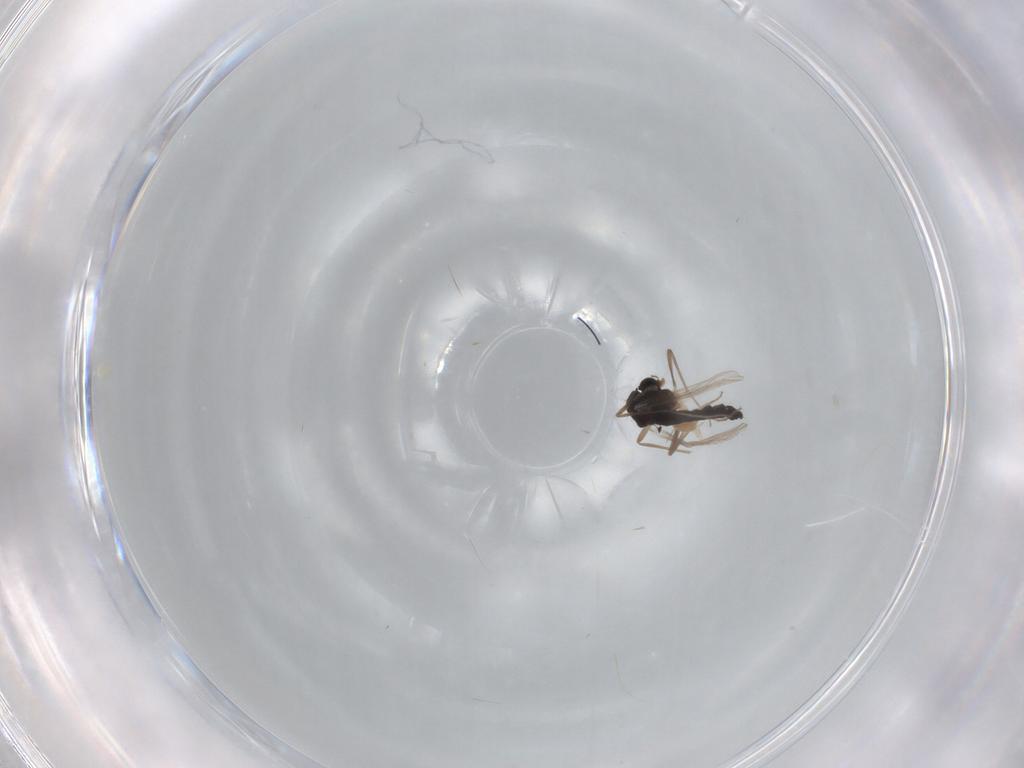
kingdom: Animalia
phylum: Arthropoda
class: Insecta
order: Diptera
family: Chironomidae
